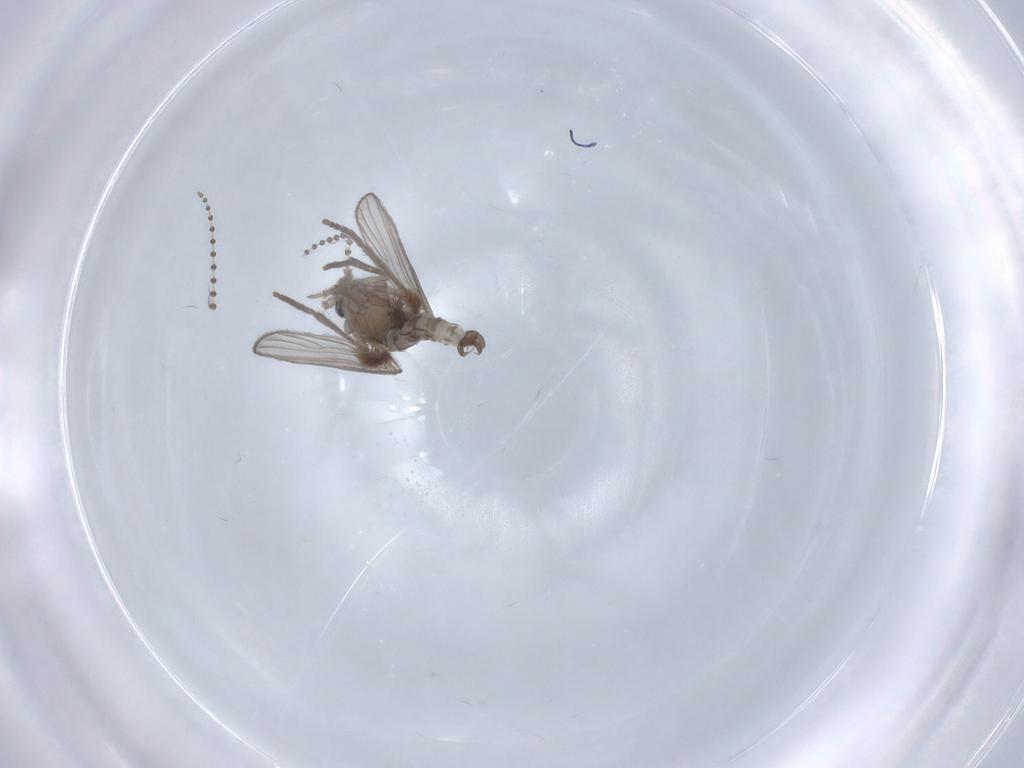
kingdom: Animalia
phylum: Arthropoda
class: Insecta
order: Diptera
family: Psychodidae
